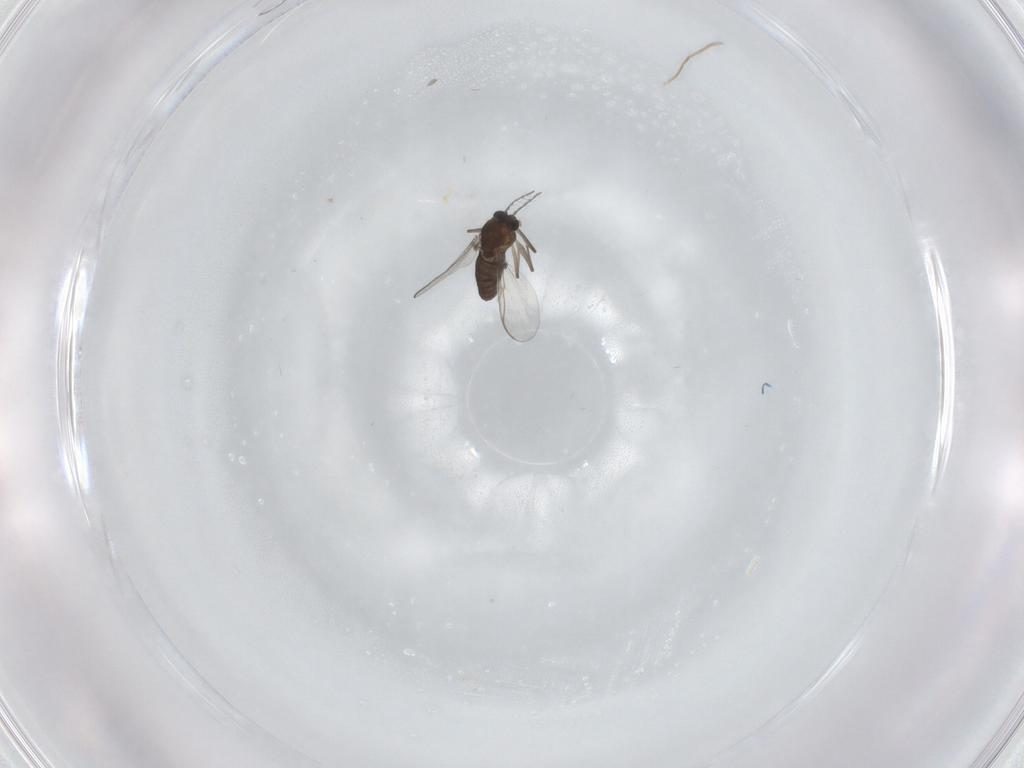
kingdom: Animalia
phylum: Arthropoda
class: Insecta
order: Diptera
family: Chironomidae
